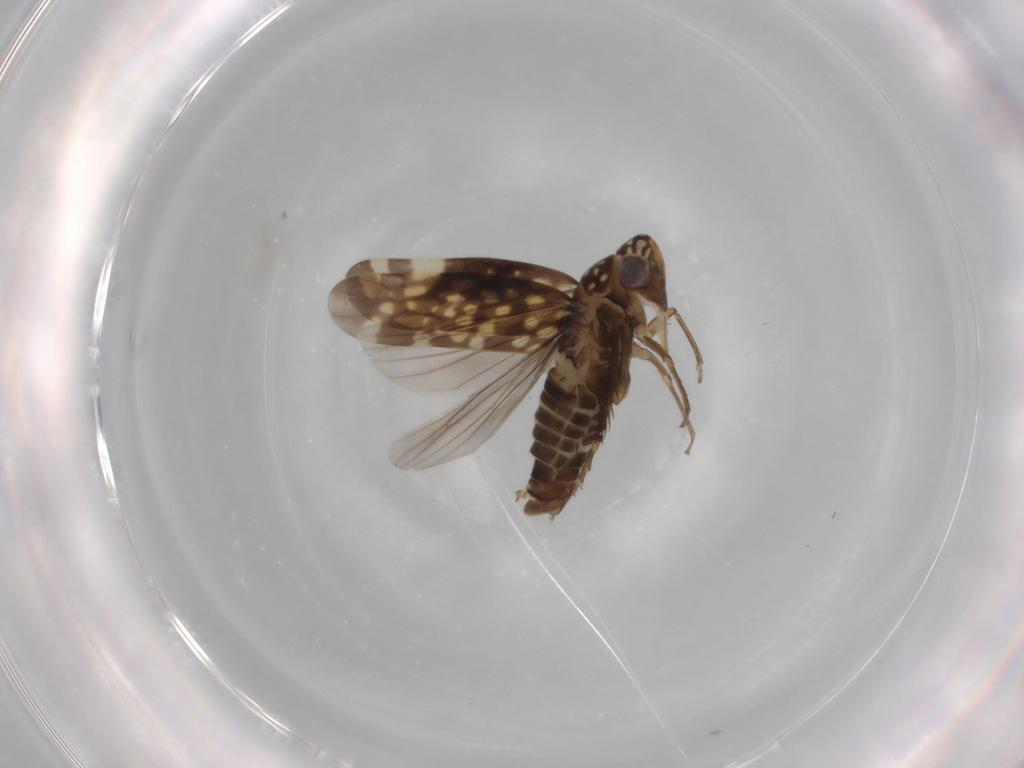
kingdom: Animalia
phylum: Arthropoda
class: Insecta
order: Hemiptera
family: Cicadellidae
